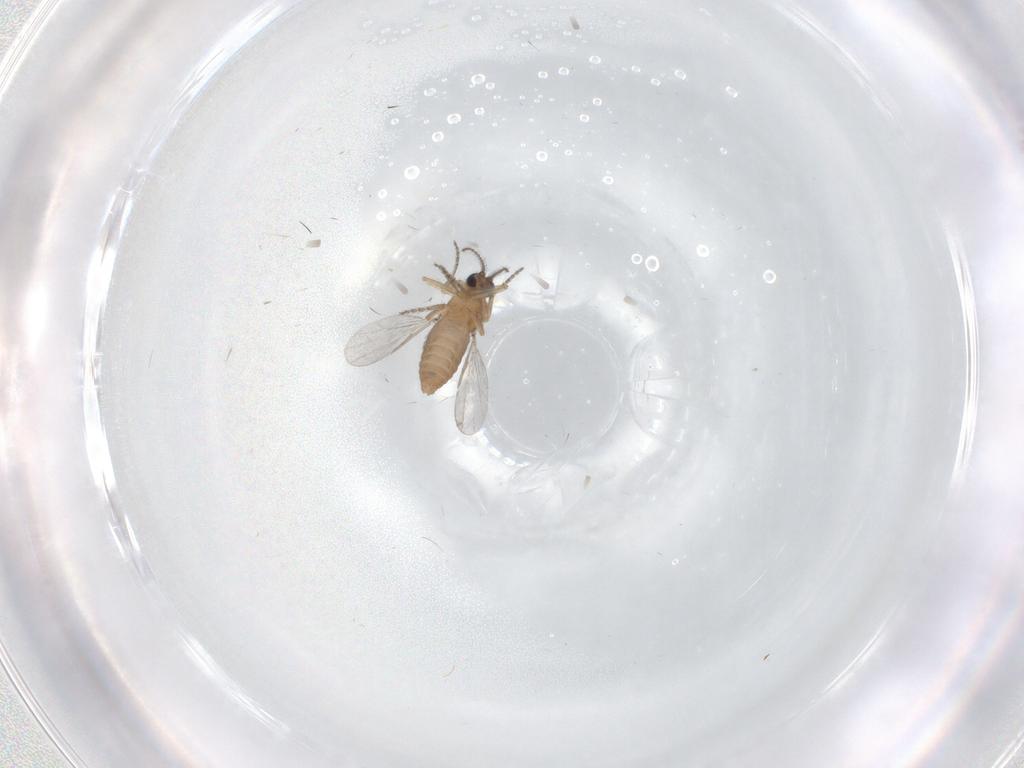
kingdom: Animalia
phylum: Arthropoda
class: Insecta
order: Diptera
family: Ceratopogonidae
